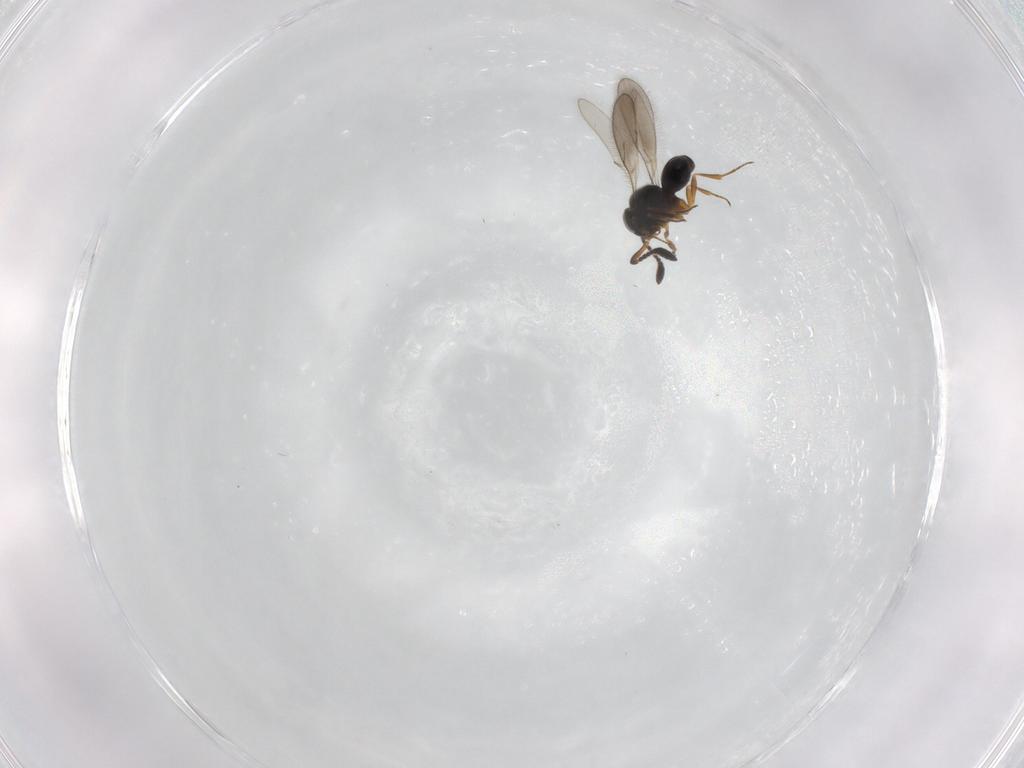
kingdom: Animalia
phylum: Arthropoda
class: Insecta
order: Hymenoptera
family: Scelionidae
